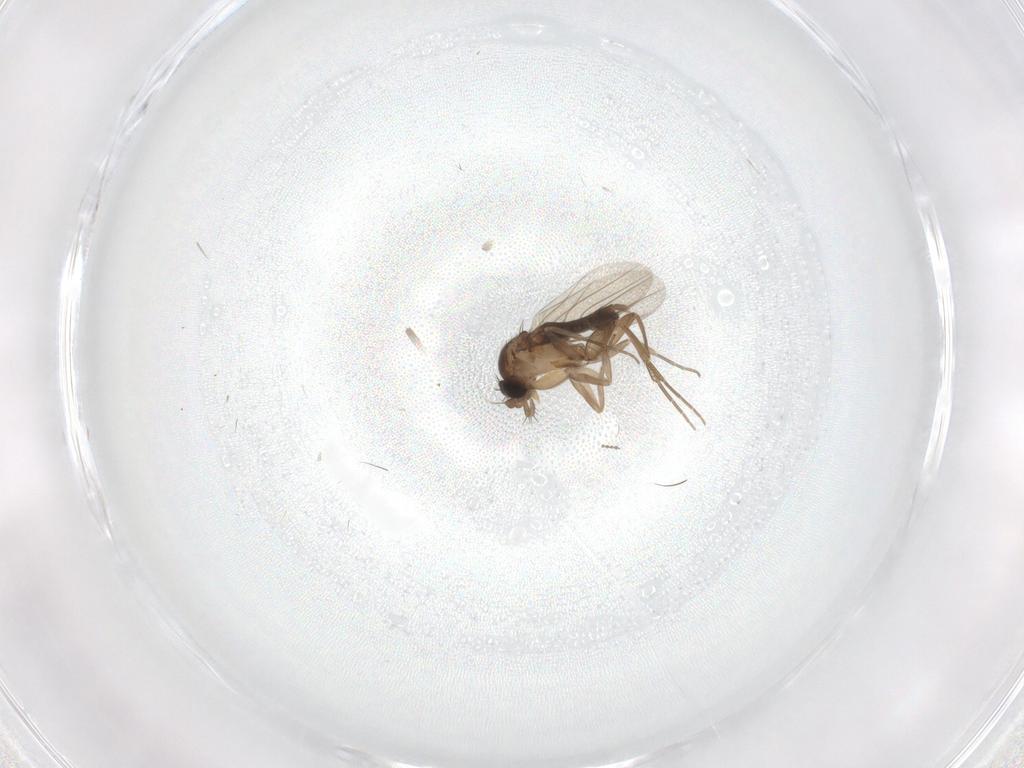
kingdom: Animalia
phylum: Arthropoda
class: Insecta
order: Diptera
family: Phoridae
